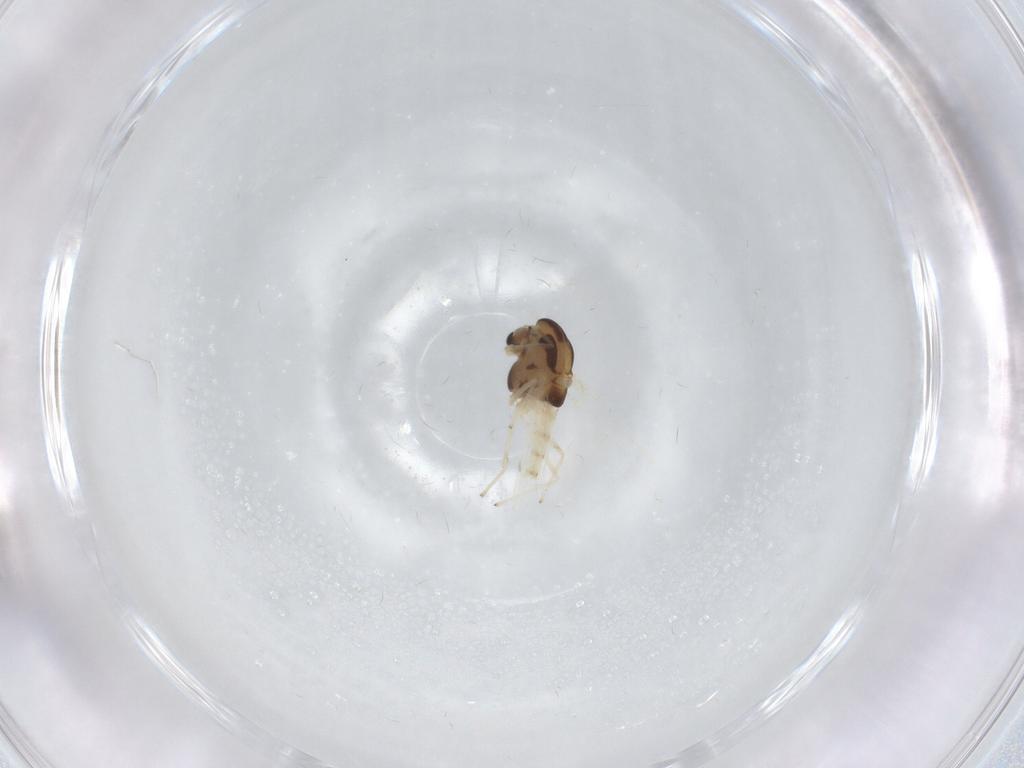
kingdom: Animalia
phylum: Arthropoda
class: Insecta
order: Diptera
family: Chironomidae
